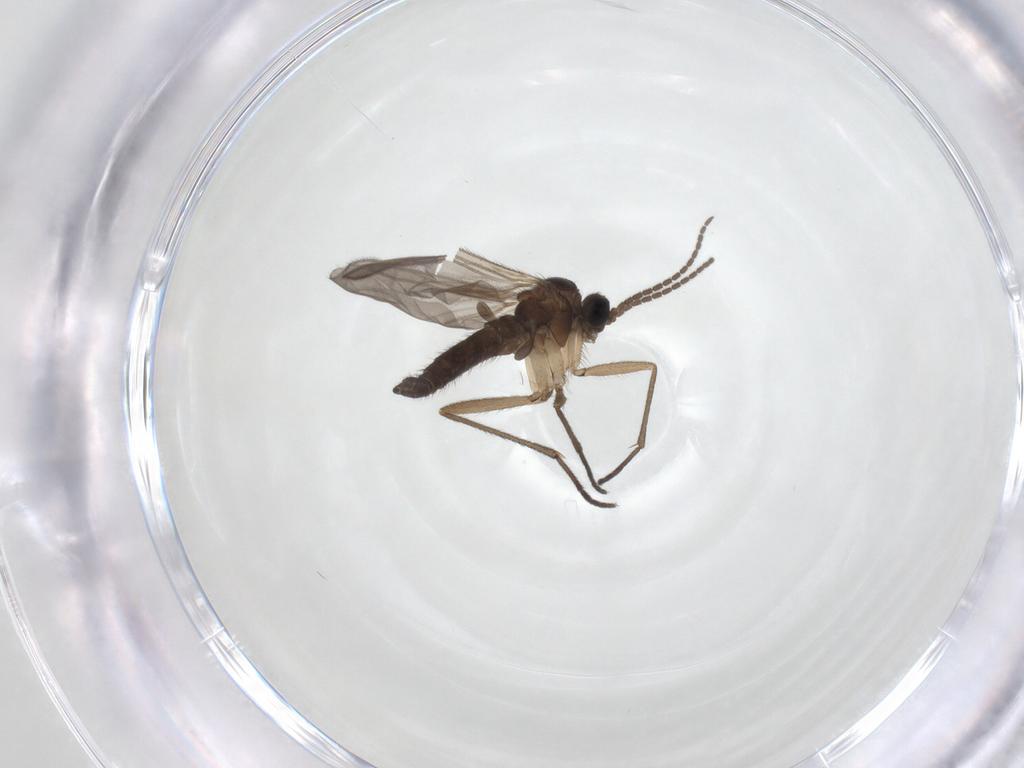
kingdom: Animalia
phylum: Arthropoda
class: Insecta
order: Diptera
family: Sciaridae
